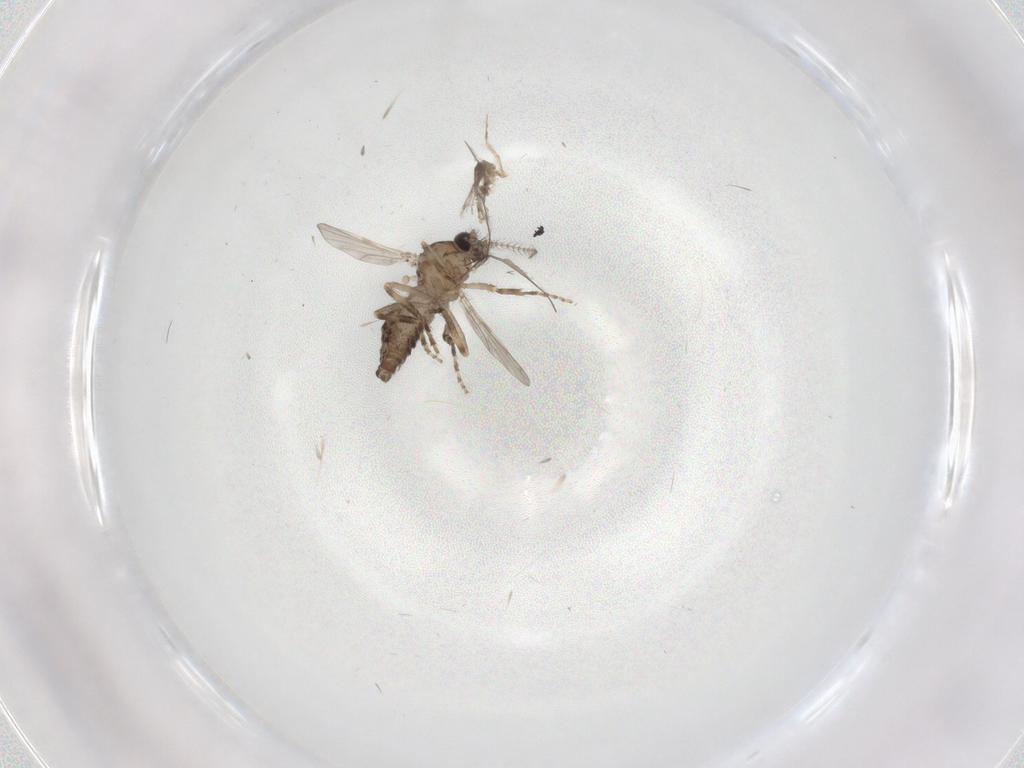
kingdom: Animalia
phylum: Arthropoda
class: Insecta
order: Diptera
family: Ceratopogonidae
